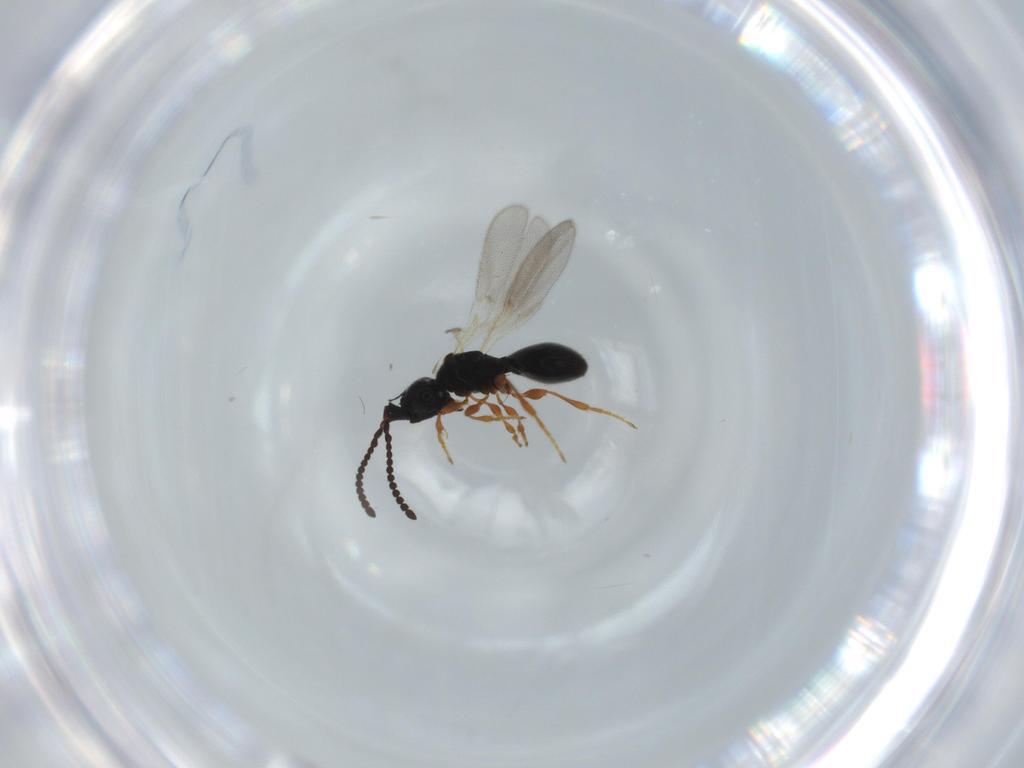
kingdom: Animalia
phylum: Arthropoda
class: Insecta
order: Hymenoptera
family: Diapriidae
